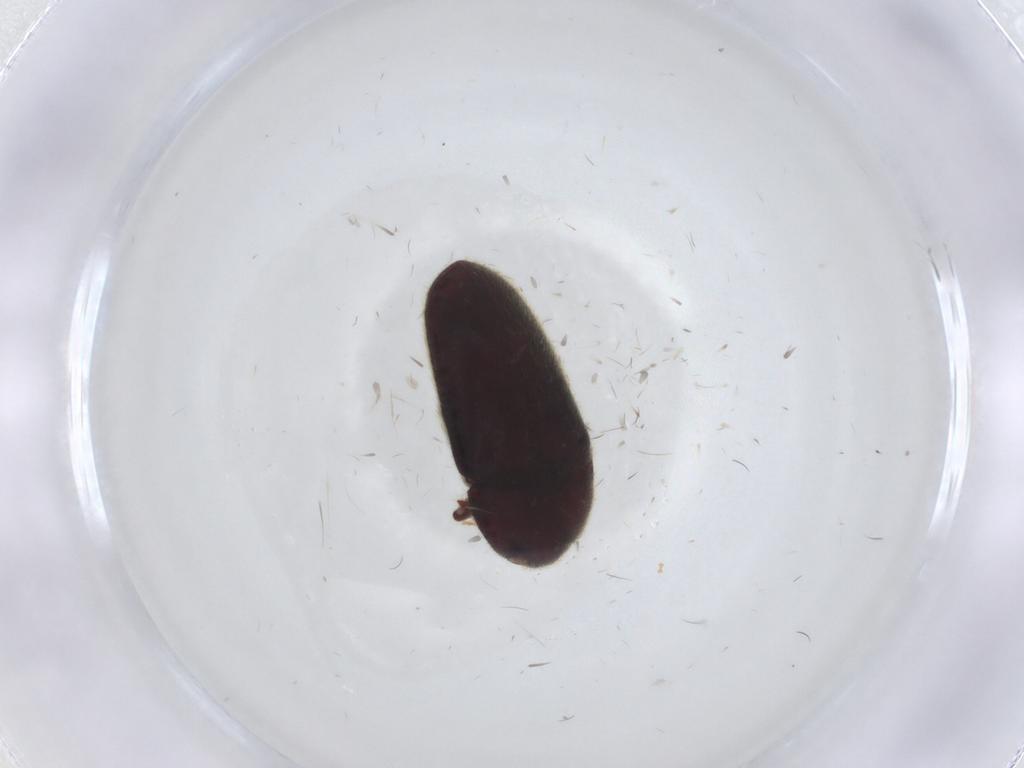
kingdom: Animalia
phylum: Arthropoda
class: Insecta
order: Coleoptera
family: Throscidae
